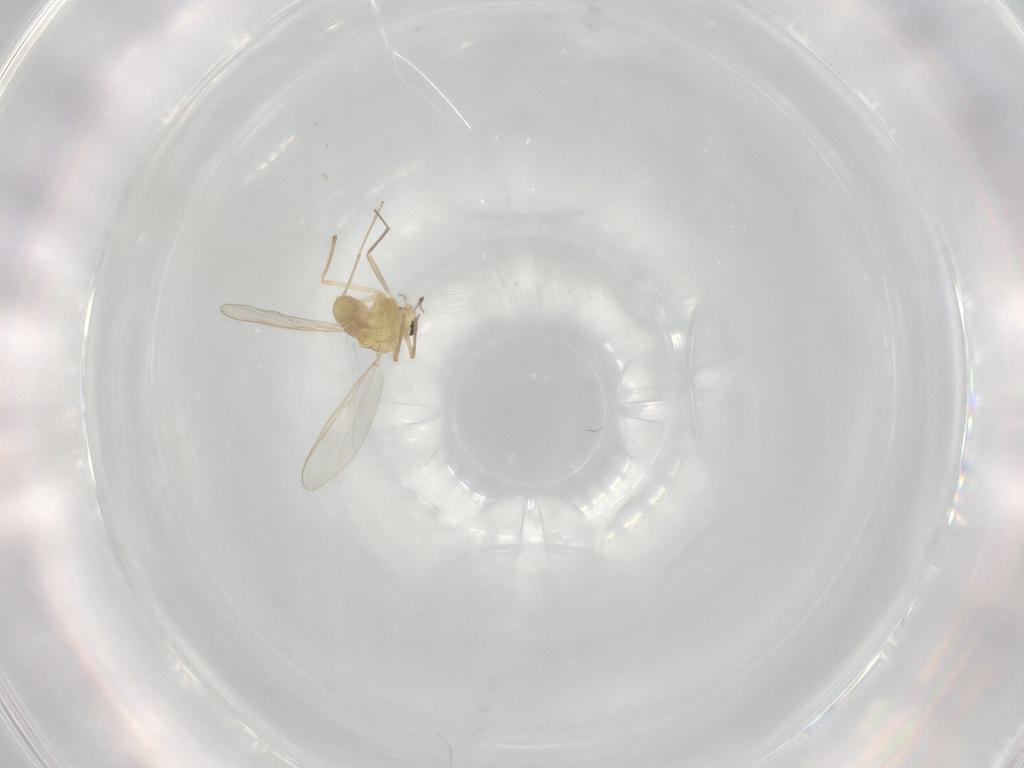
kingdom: Animalia
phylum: Arthropoda
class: Insecta
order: Diptera
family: Chironomidae
